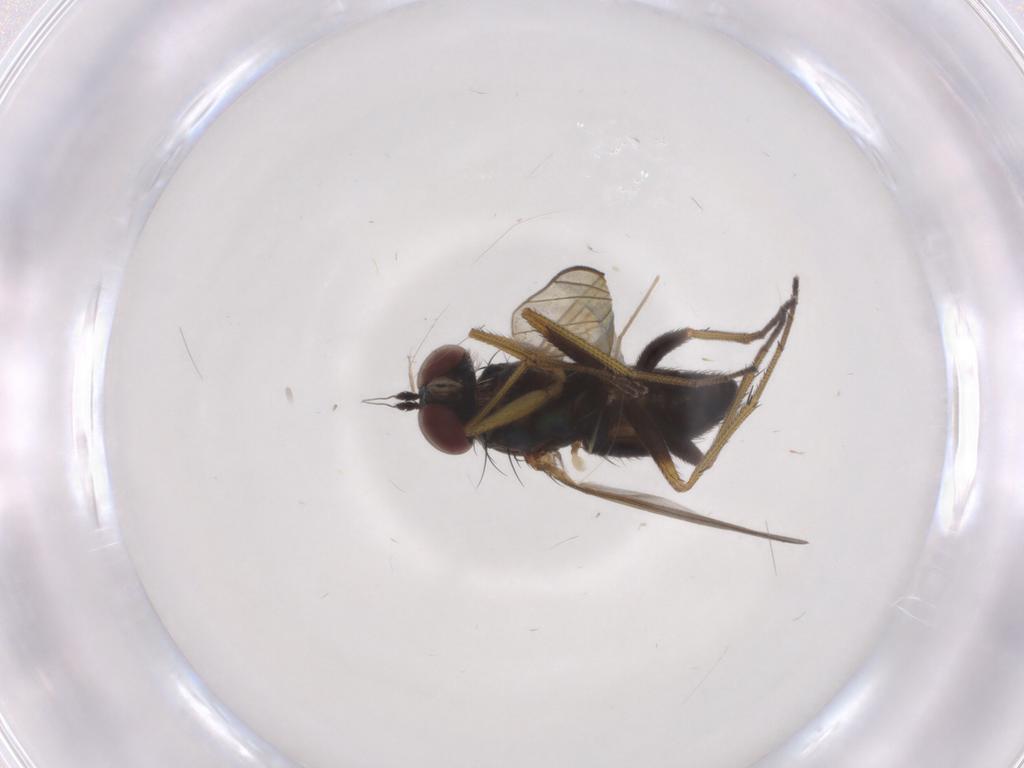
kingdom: Animalia
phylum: Arthropoda
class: Insecta
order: Diptera
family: Dolichopodidae
